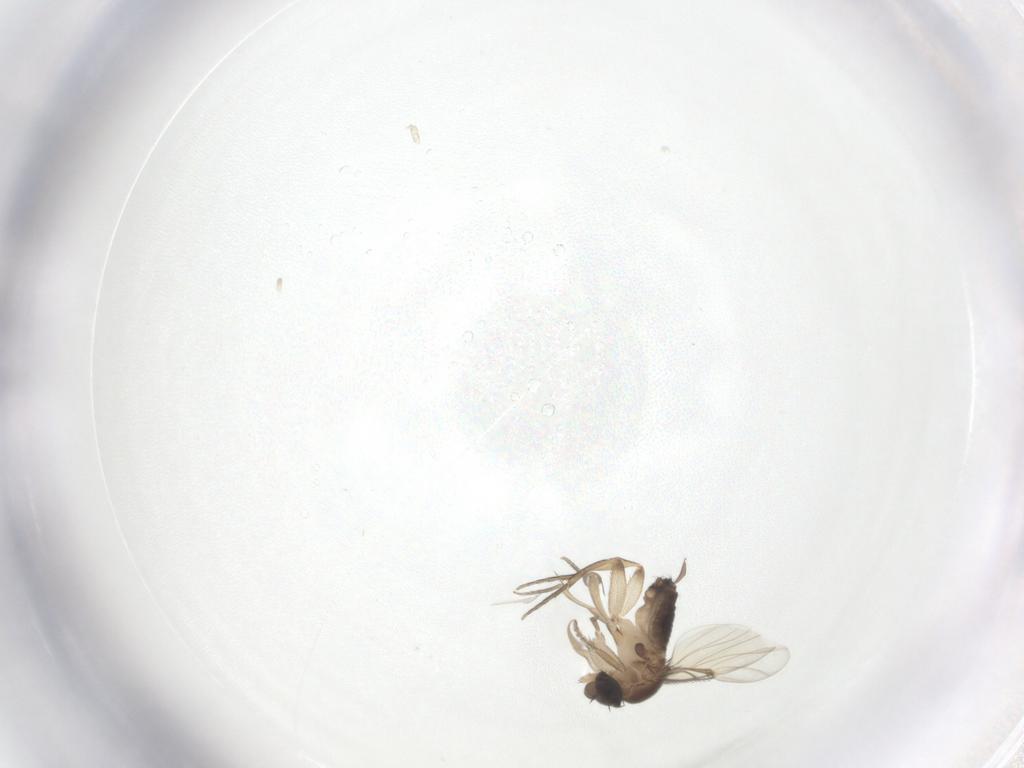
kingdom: Animalia
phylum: Arthropoda
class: Insecta
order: Diptera
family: Phoridae
